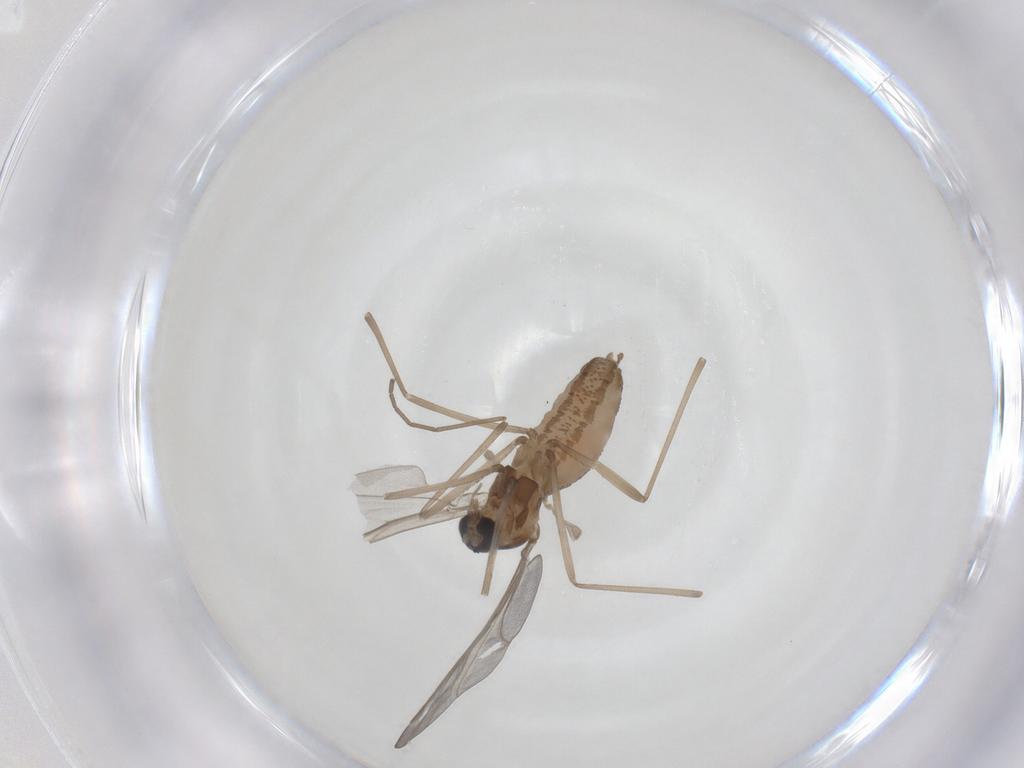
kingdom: Animalia
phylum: Arthropoda
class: Insecta
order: Diptera
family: Cecidomyiidae
